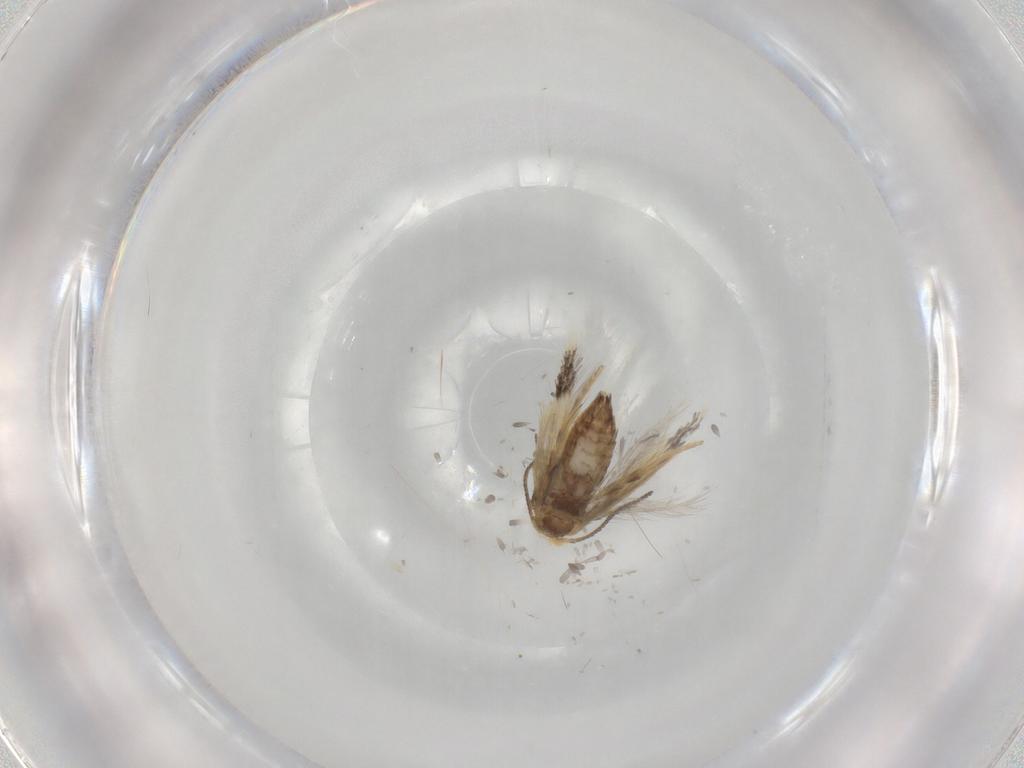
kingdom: Animalia
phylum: Arthropoda
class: Insecta
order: Lepidoptera
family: Nepticulidae
